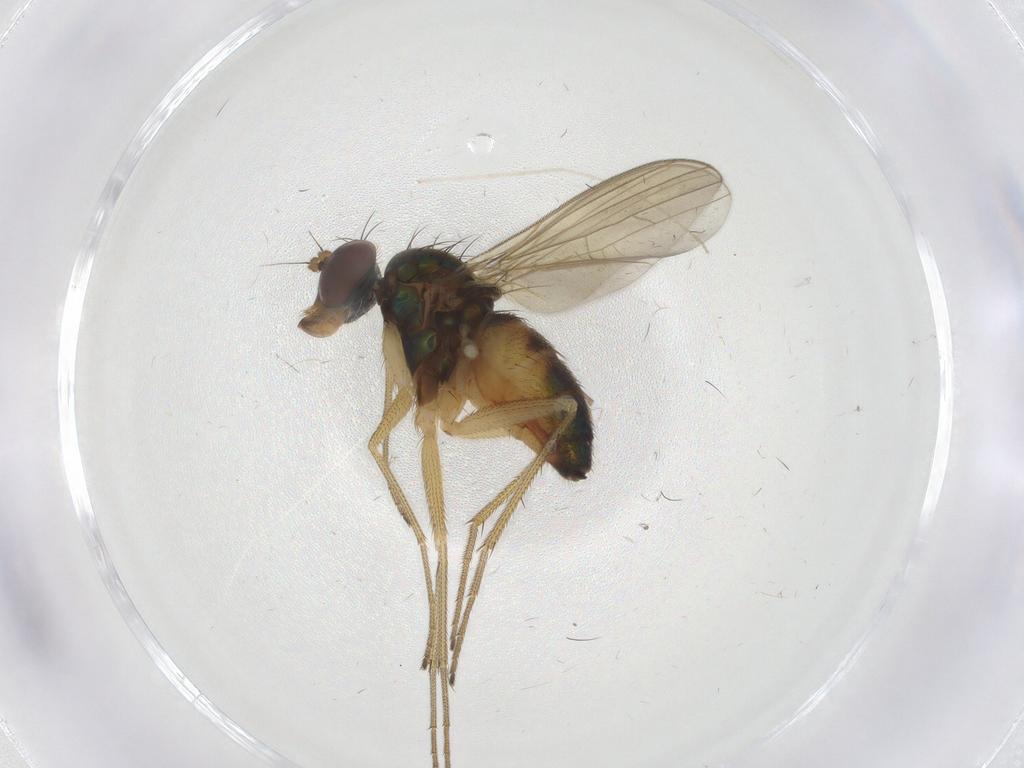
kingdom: Animalia
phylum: Arthropoda
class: Insecta
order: Diptera
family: Dolichopodidae
